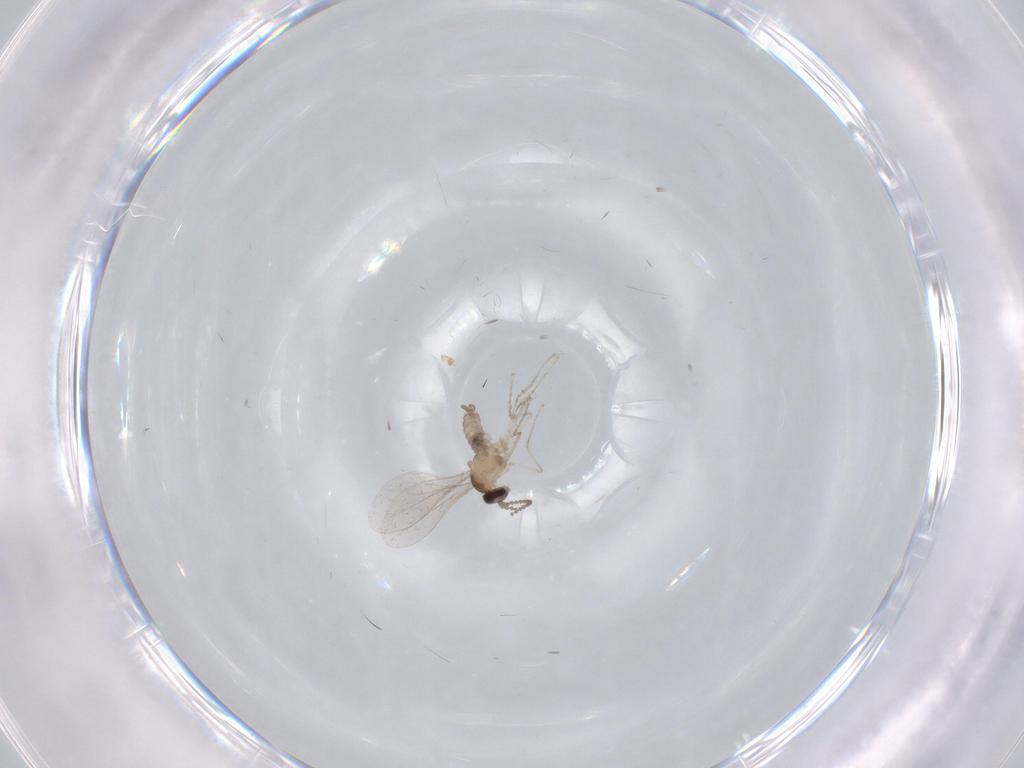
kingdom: Animalia
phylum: Arthropoda
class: Insecta
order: Diptera
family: Cecidomyiidae
